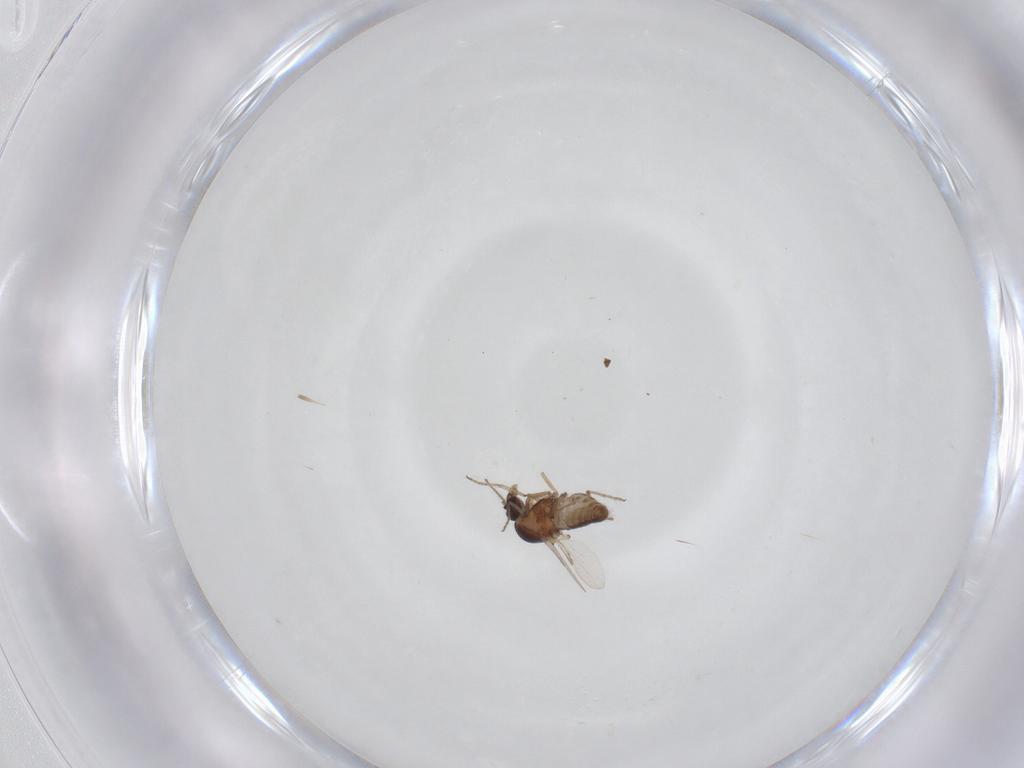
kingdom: Animalia
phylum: Arthropoda
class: Insecta
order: Diptera
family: Ceratopogonidae
